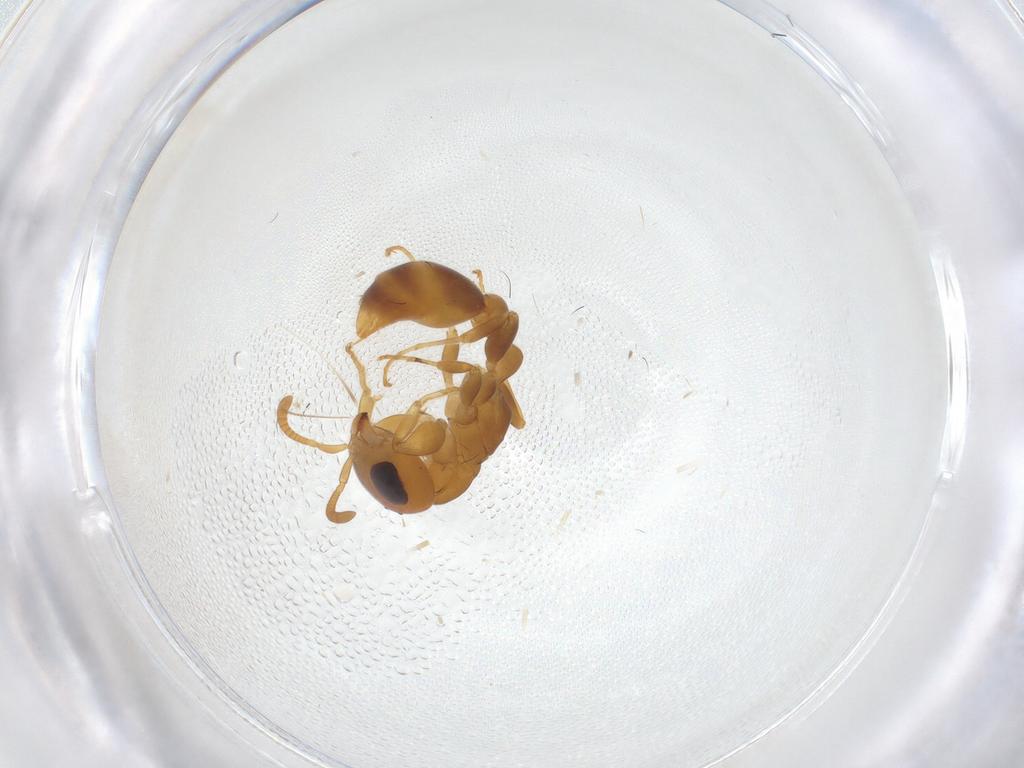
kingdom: Animalia
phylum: Arthropoda
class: Insecta
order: Hymenoptera
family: Formicidae
